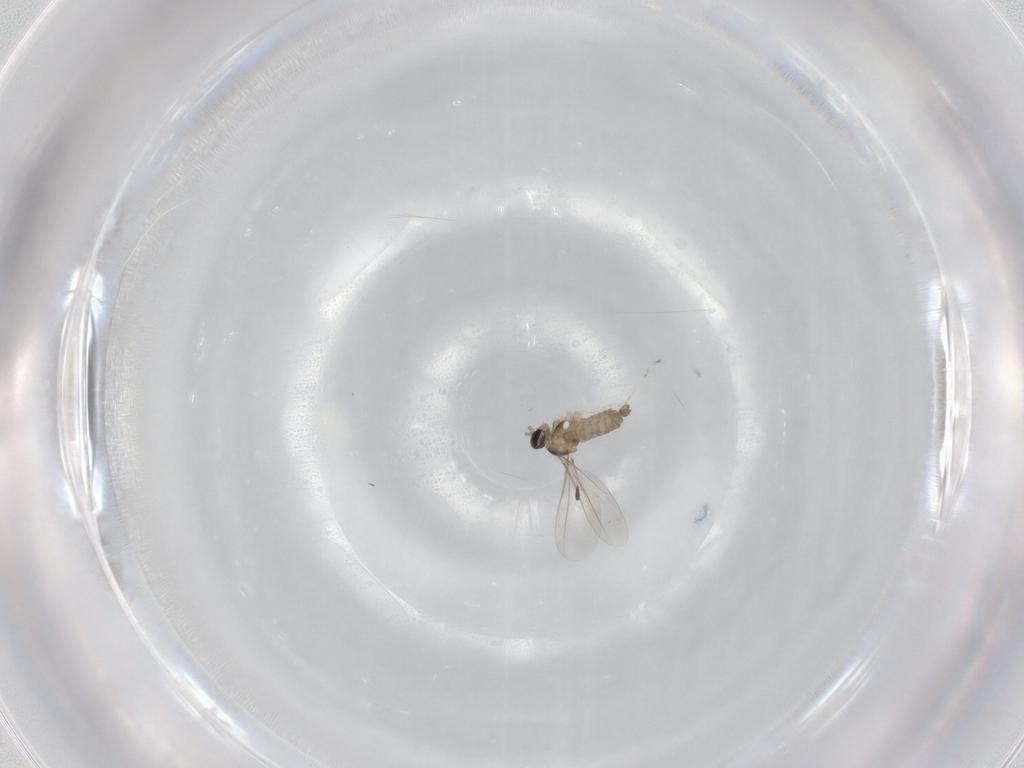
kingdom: Animalia
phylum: Arthropoda
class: Insecta
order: Diptera
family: Cecidomyiidae
